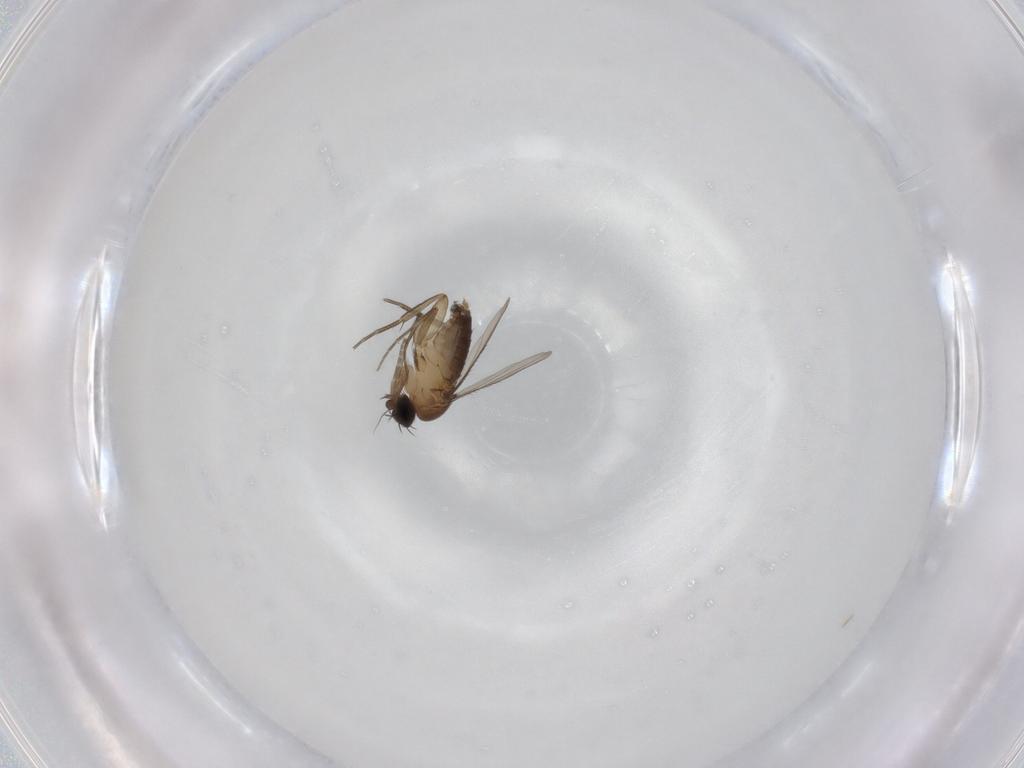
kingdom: Animalia
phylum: Arthropoda
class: Insecta
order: Diptera
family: Phoridae
